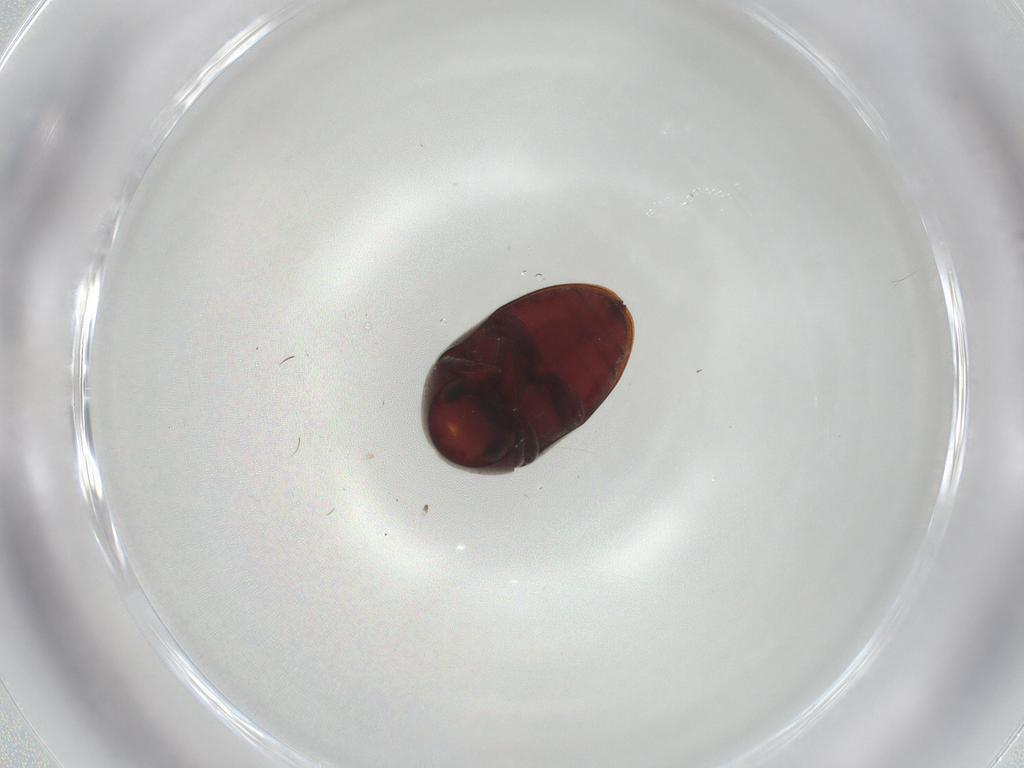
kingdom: Animalia
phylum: Arthropoda
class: Insecta
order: Coleoptera
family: Anobiidae
